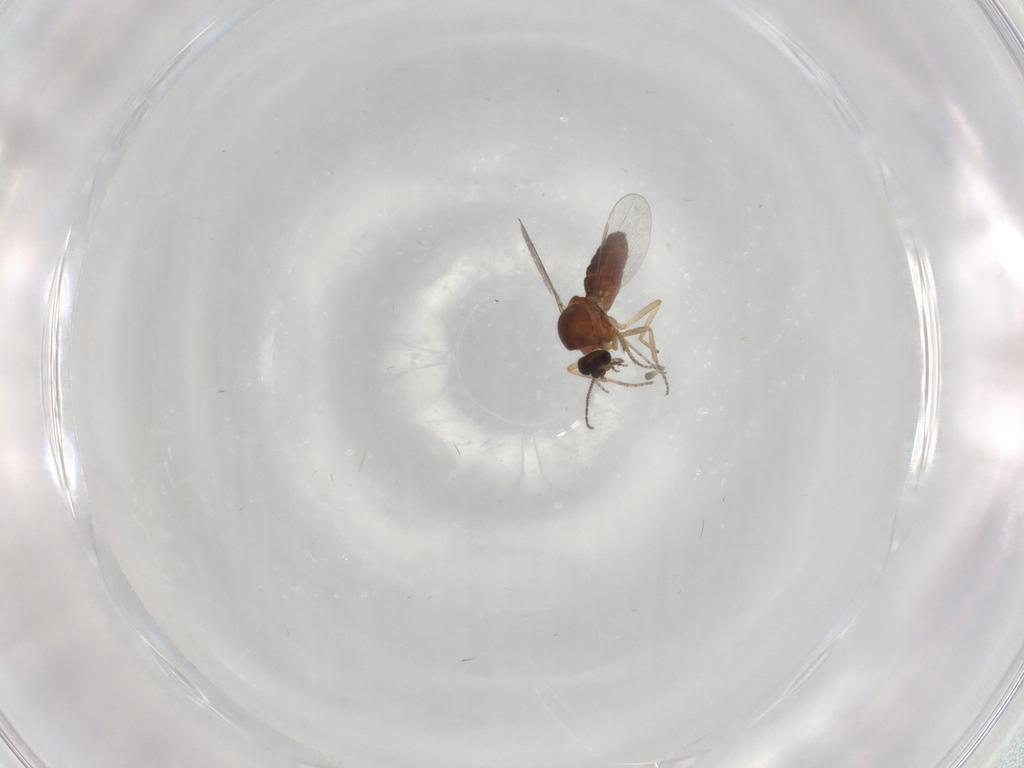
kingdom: Animalia
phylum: Arthropoda
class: Insecta
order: Diptera
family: Ceratopogonidae
